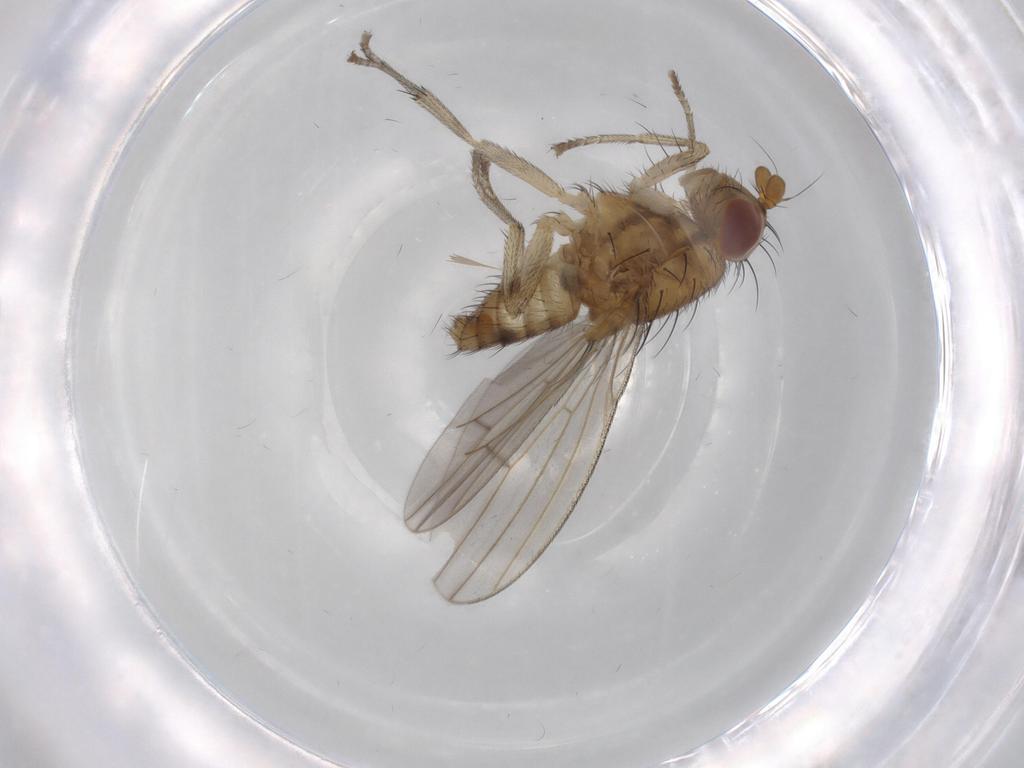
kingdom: Animalia
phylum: Arthropoda
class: Insecta
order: Diptera
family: Lauxaniidae
